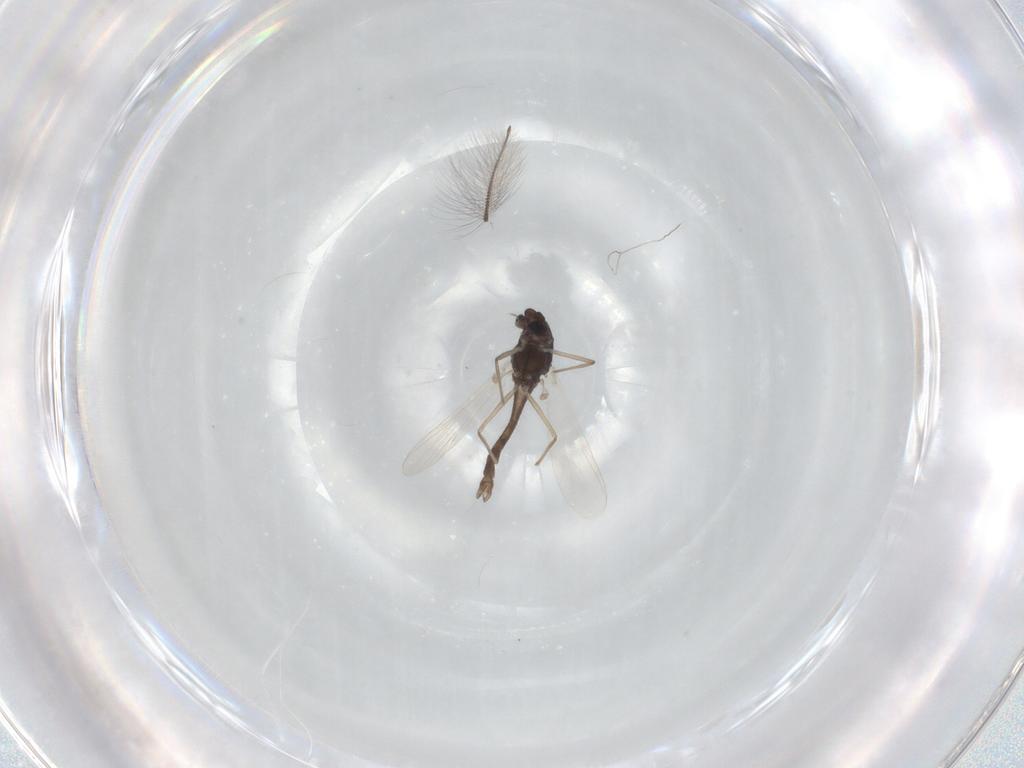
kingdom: Animalia
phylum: Arthropoda
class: Insecta
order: Diptera
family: Chironomidae
